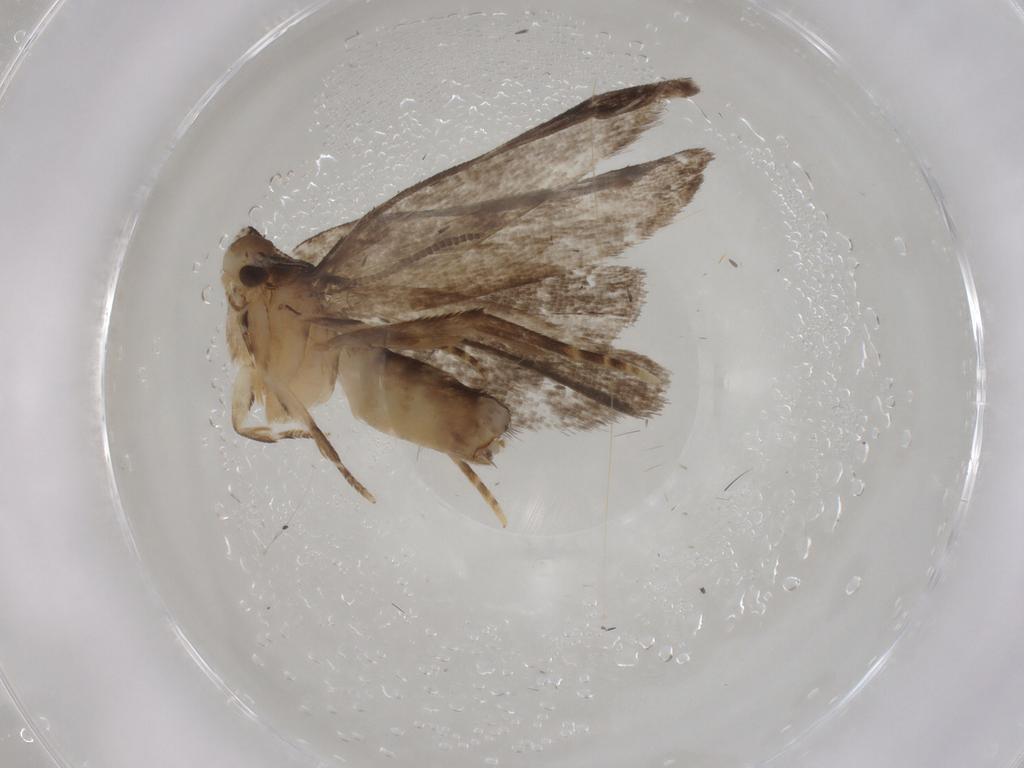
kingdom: Animalia
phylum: Arthropoda
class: Insecta
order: Lepidoptera
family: Dryadaulidae
